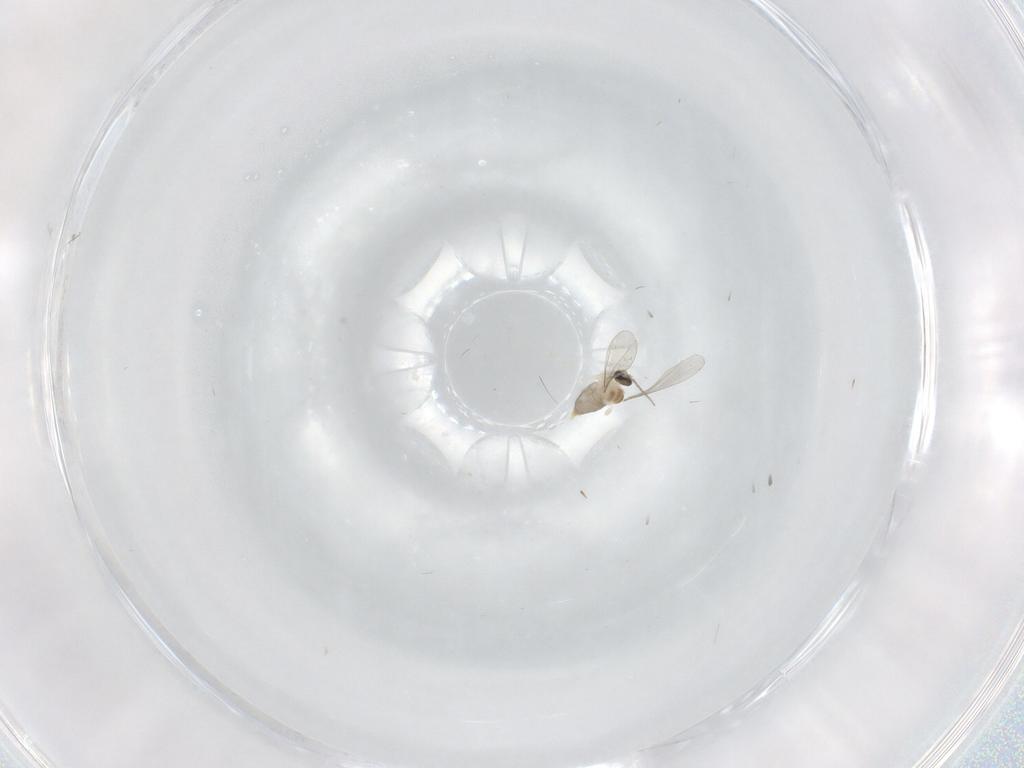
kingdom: Animalia
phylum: Arthropoda
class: Insecta
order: Diptera
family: Cecidomyiidae
